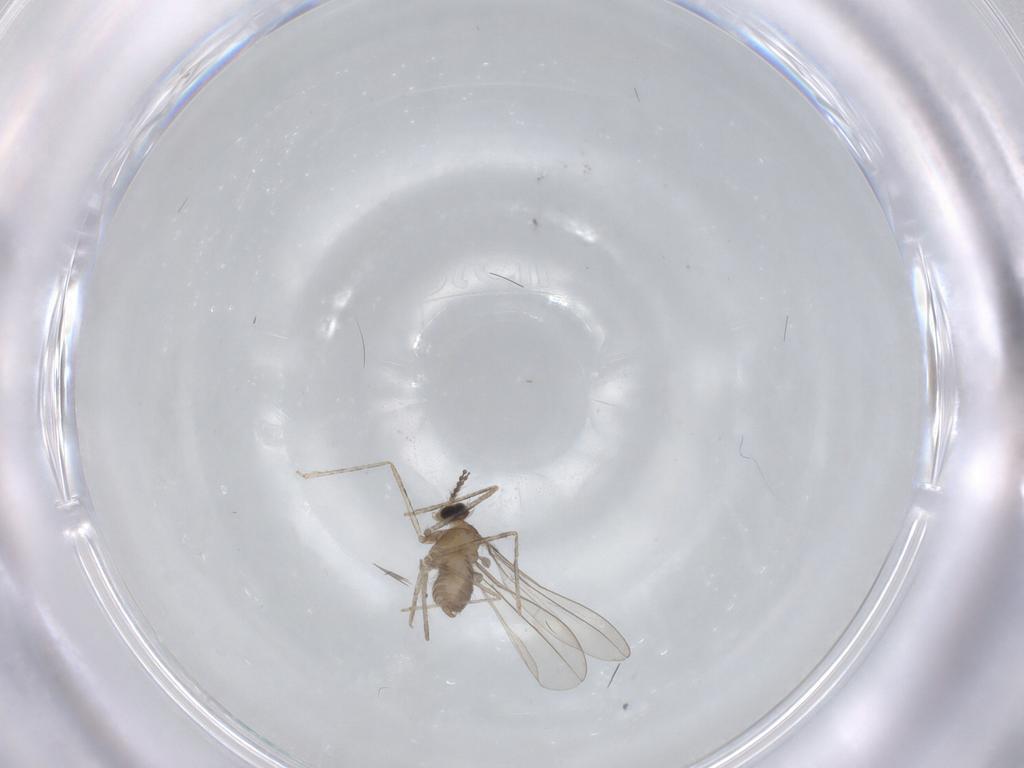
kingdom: Animalia
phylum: Arthropoda
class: Insecta
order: Diptera
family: Cecidomyiidae
